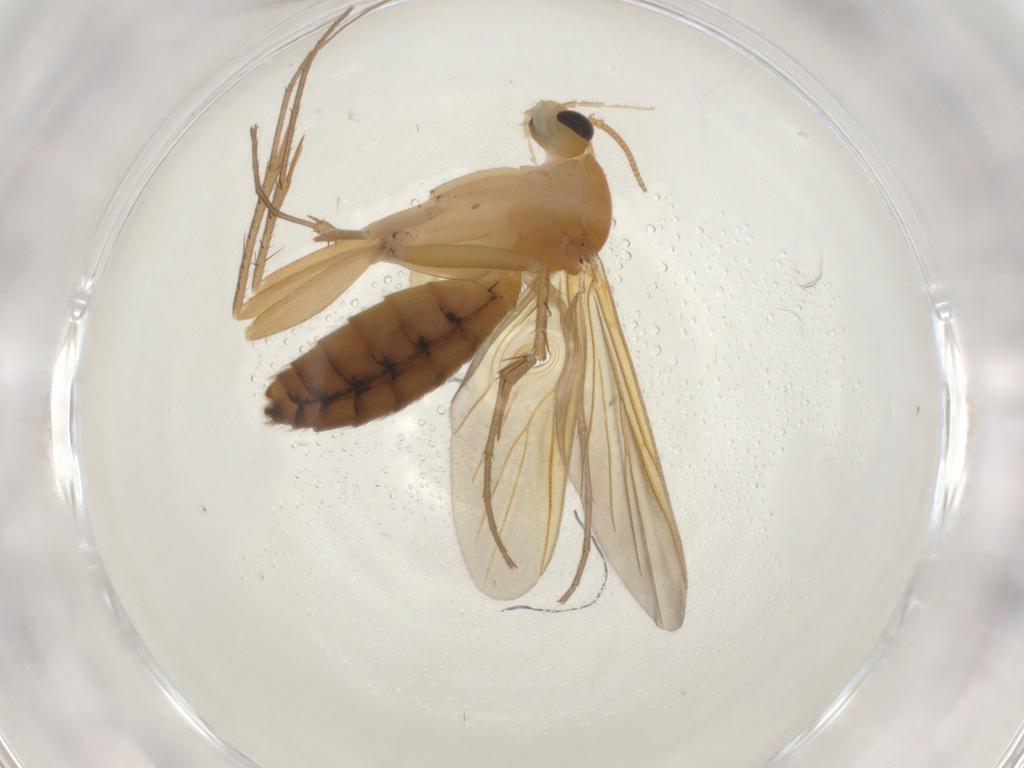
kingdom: Animalia
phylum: Arthropoda
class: Insecta
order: Diptera
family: Mycetophilidae
